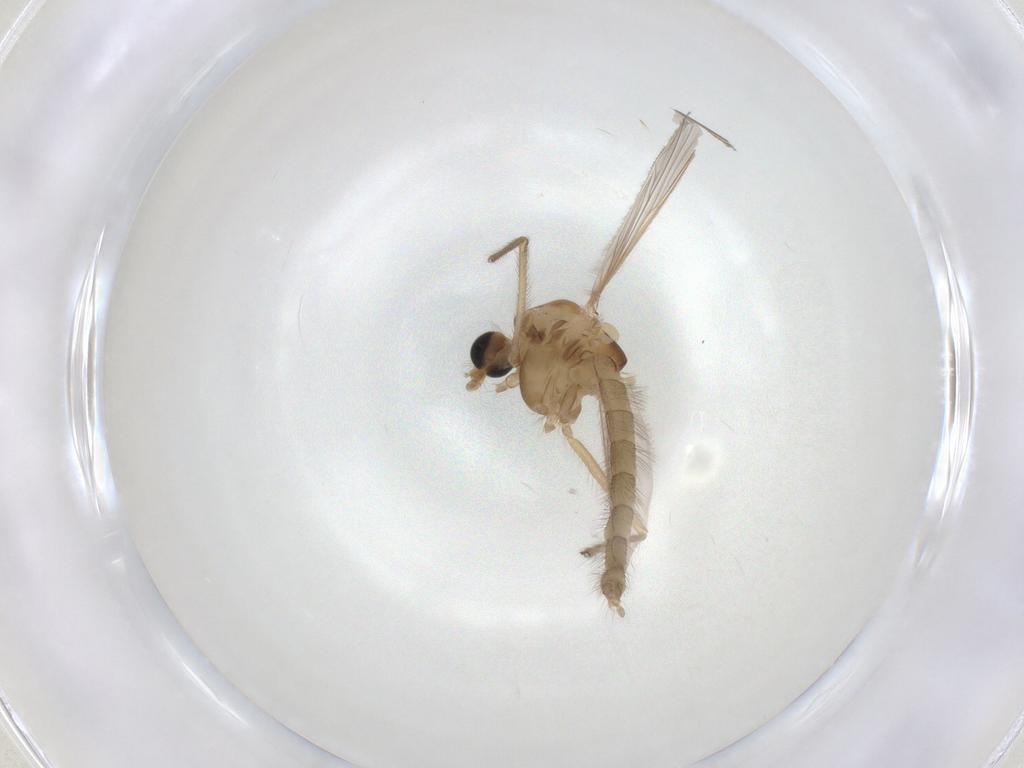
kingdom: Animalia
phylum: Arthropoda
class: Insecta
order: Diptera
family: Chironomidae
